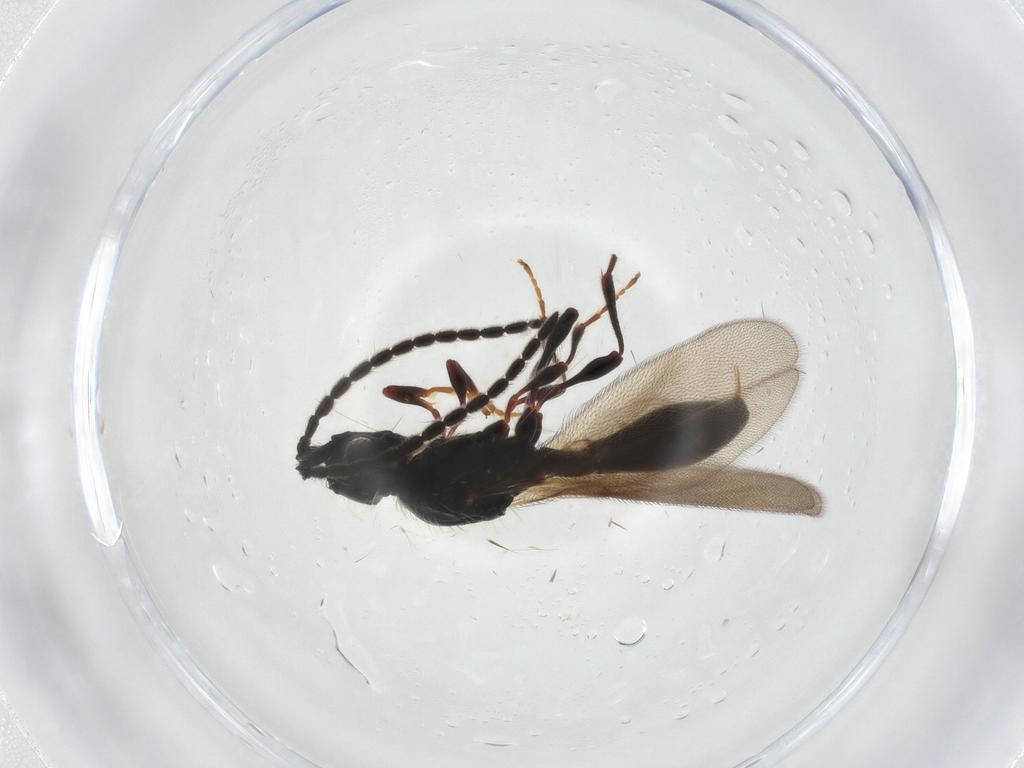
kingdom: Animalia
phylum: Arthropoda
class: Insecta
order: Hymenoptera
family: Diapriidae
